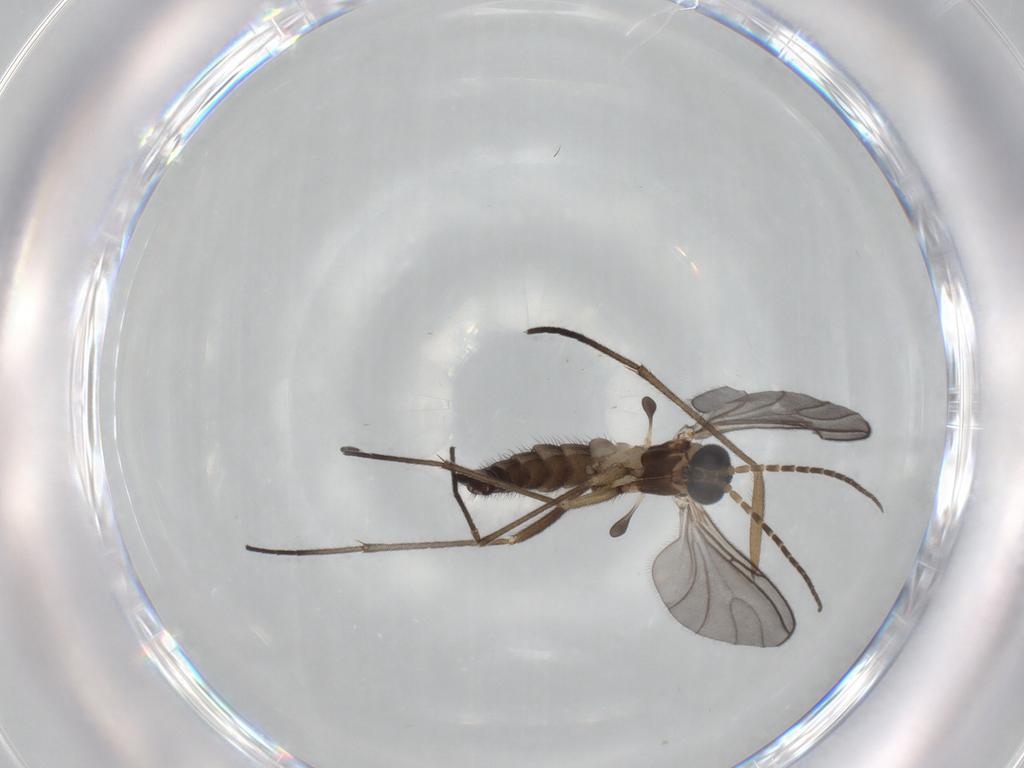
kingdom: Animalia
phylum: Arthropoda
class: Insecta
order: Diptera
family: Sciaridae
